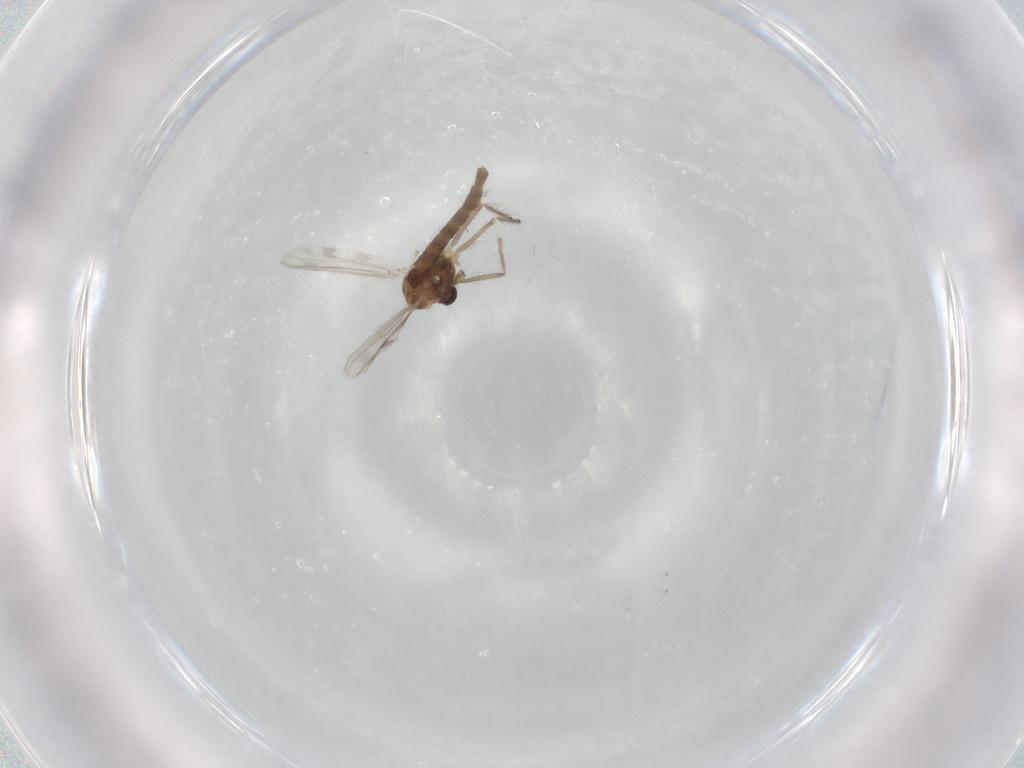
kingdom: Animalia
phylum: Arthropoda
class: Insecta
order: Diptera
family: Chironomidae
